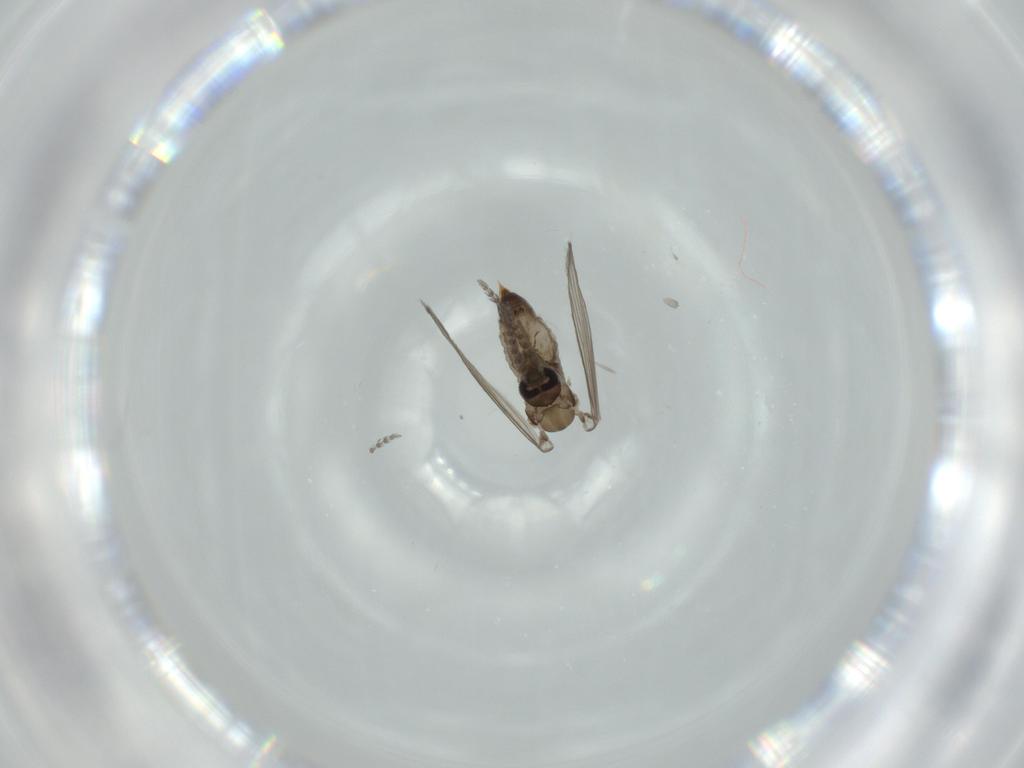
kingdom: Animalia
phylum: Arthropoda
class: Insecta
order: Diptera
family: Psychodidae
